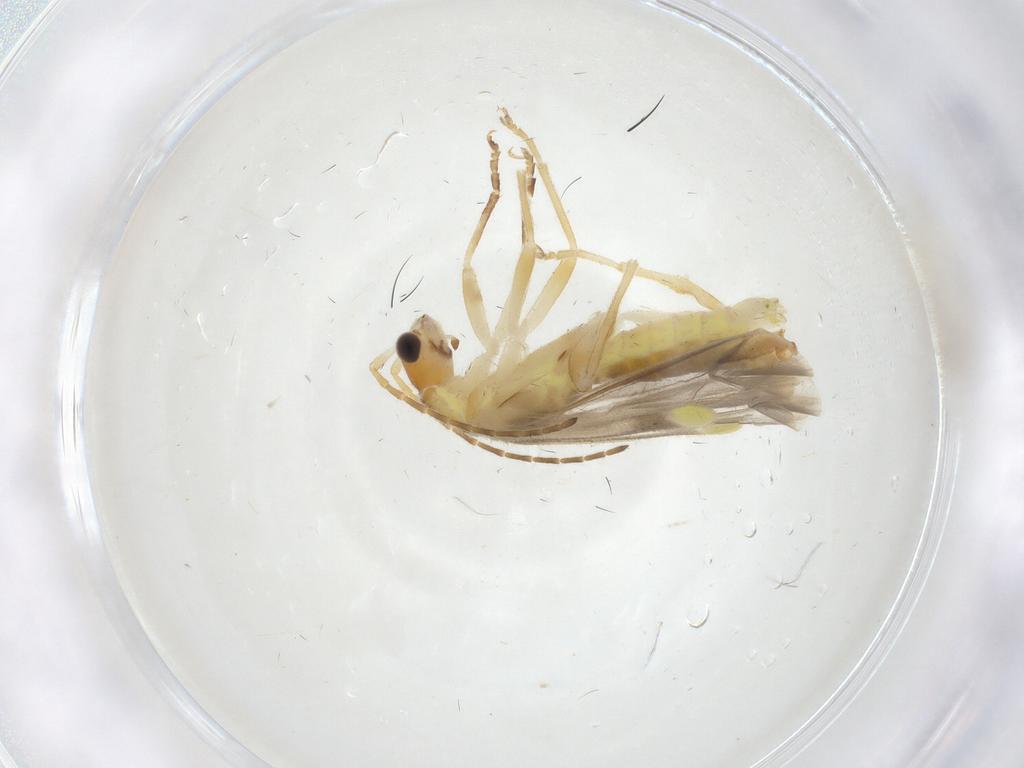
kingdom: Animalia
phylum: Arthropoda
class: Insecta
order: Coleoptera
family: Cantharidae
